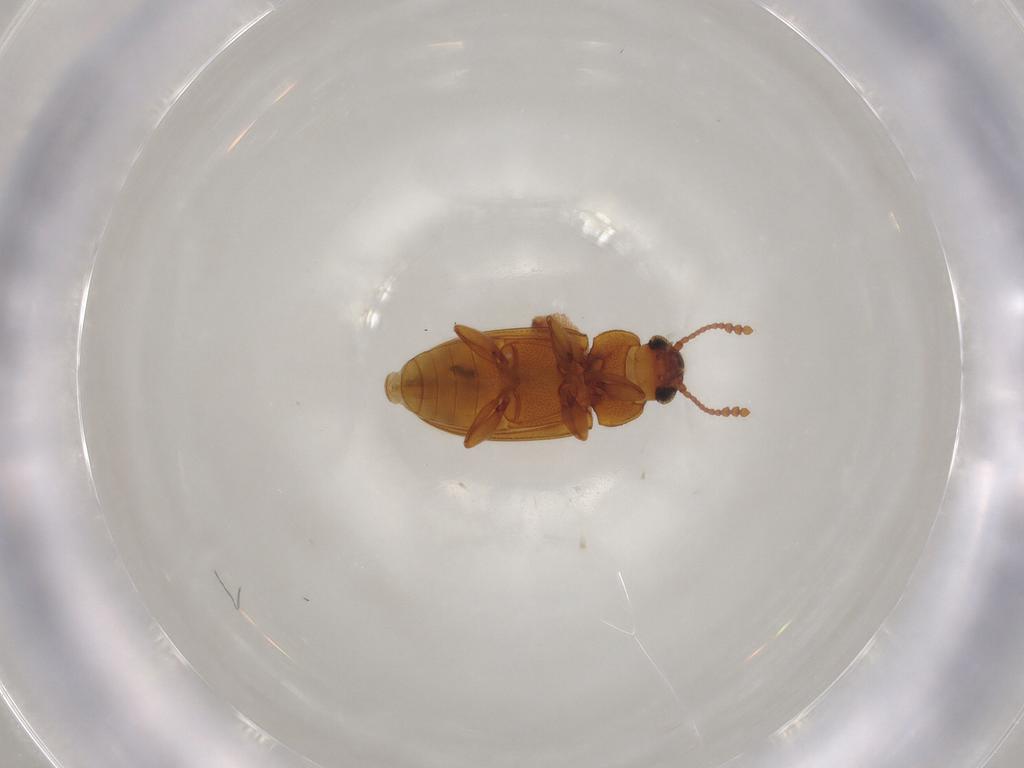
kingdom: Animalia
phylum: Arthropoda
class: Insecta
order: Coleoptera
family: Erotylidae
